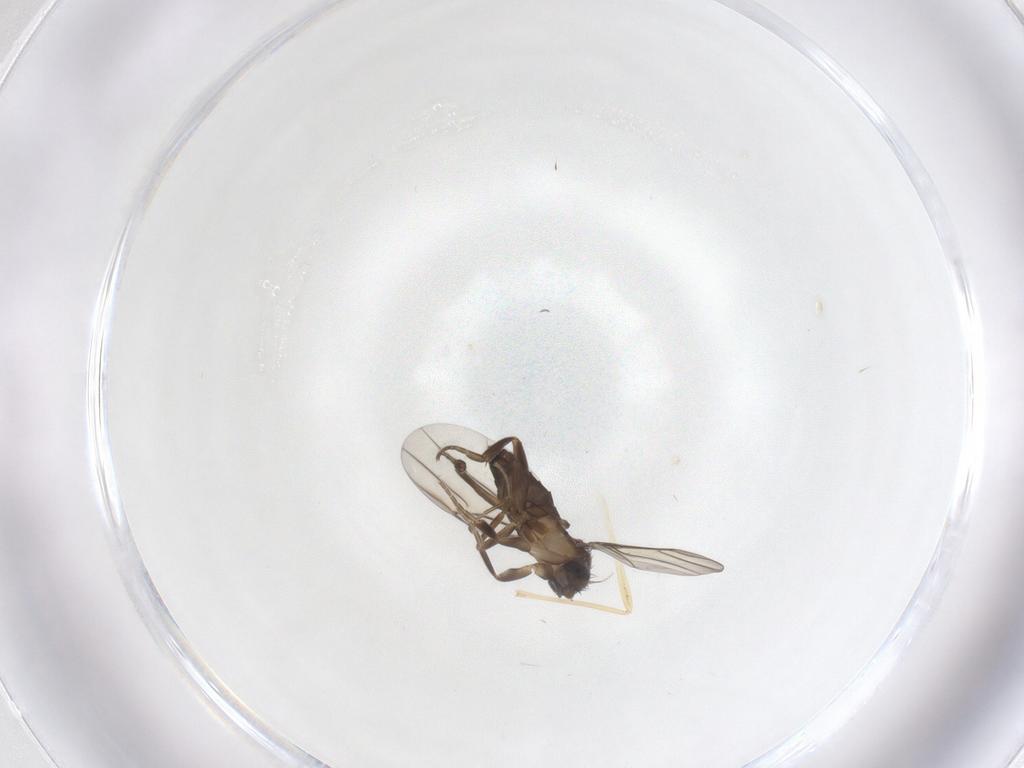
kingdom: Animalia
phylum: Arthropoda
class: Insecta
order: Diptera
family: Phoridae
